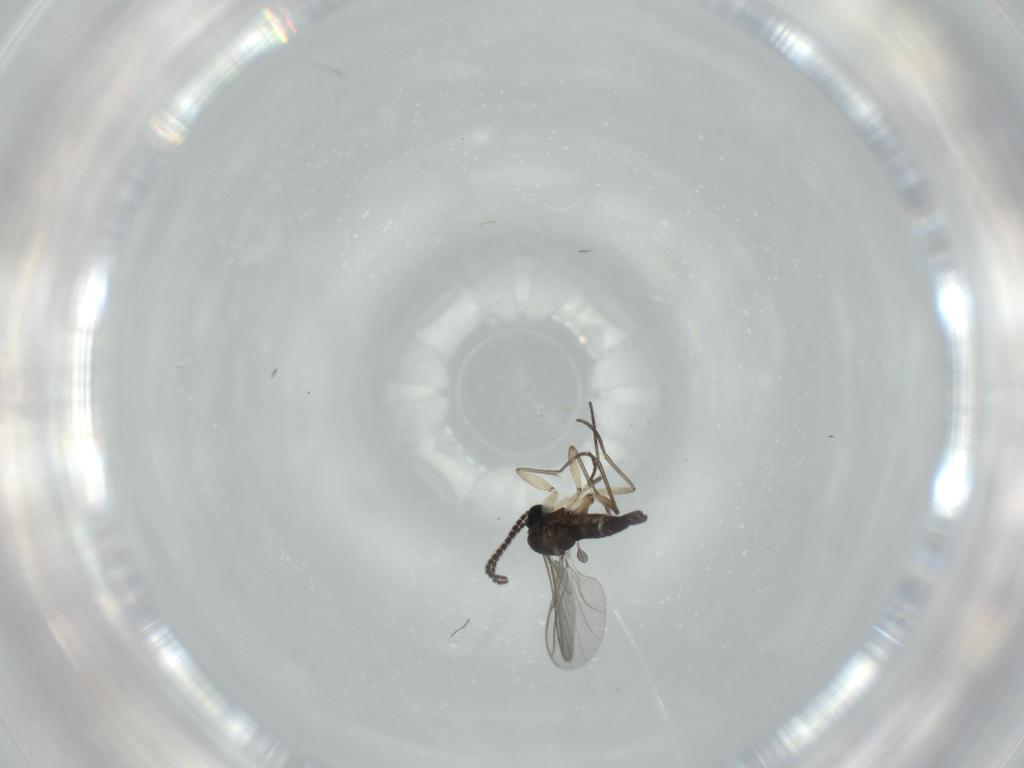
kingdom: Animalia
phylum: Arthropoda
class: Insecta
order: Diptera
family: Sciaridae
